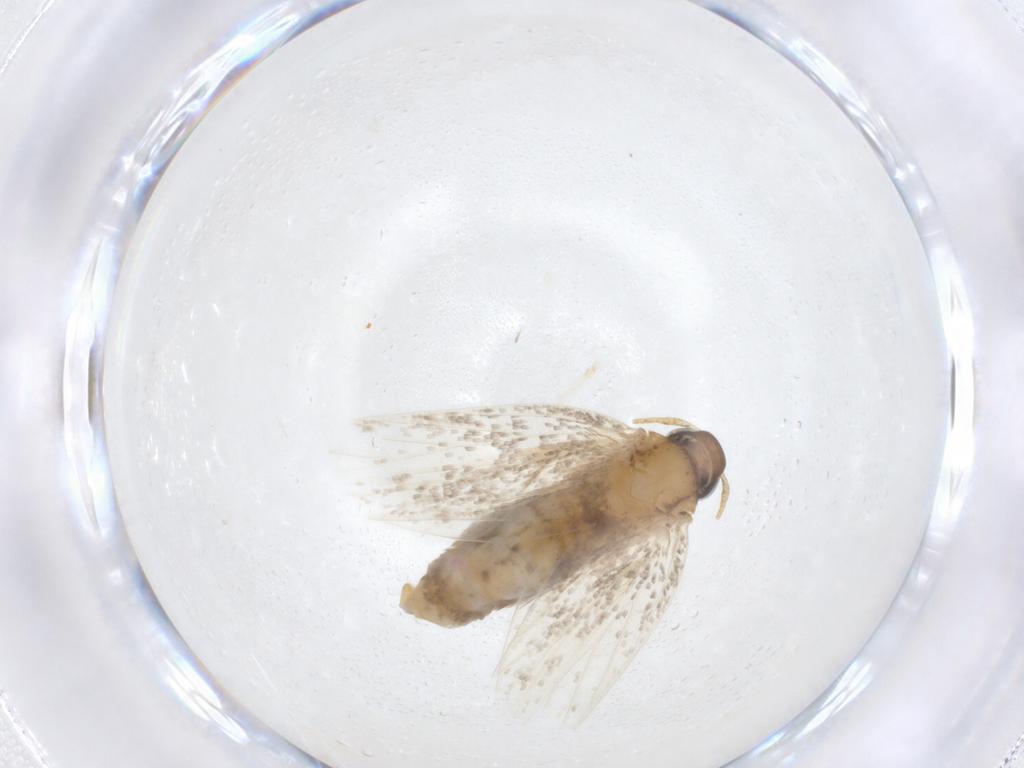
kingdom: Animalia
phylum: Arthropoda
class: Insecta
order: Lepidoptera
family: Oecophoridae
